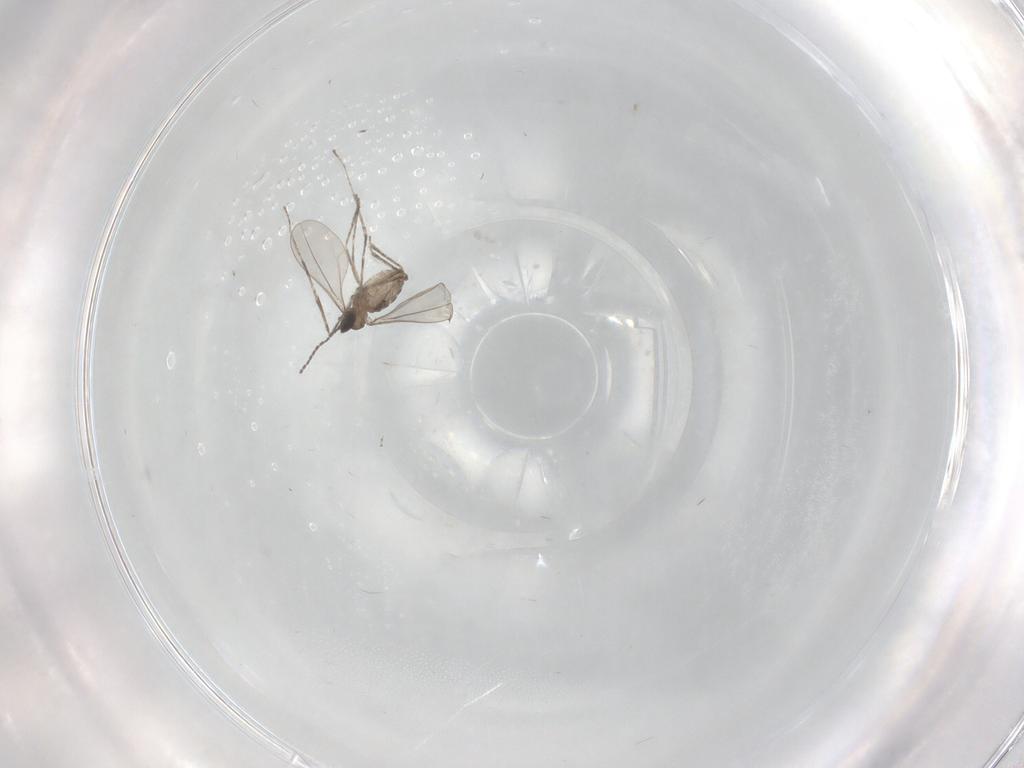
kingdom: Animalia
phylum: Arthropoda
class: Insecta
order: Diptera
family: Cecidomyiidae
